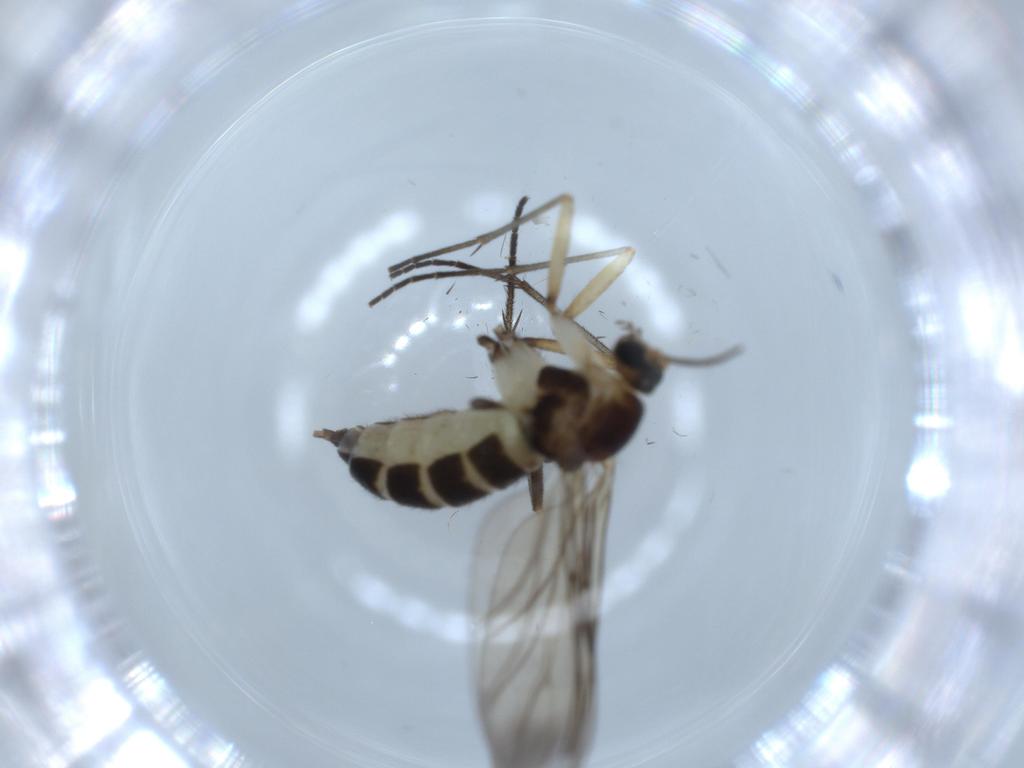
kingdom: Animalia
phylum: Arthropoda
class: Insecta
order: Diptera
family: Sciaridae
